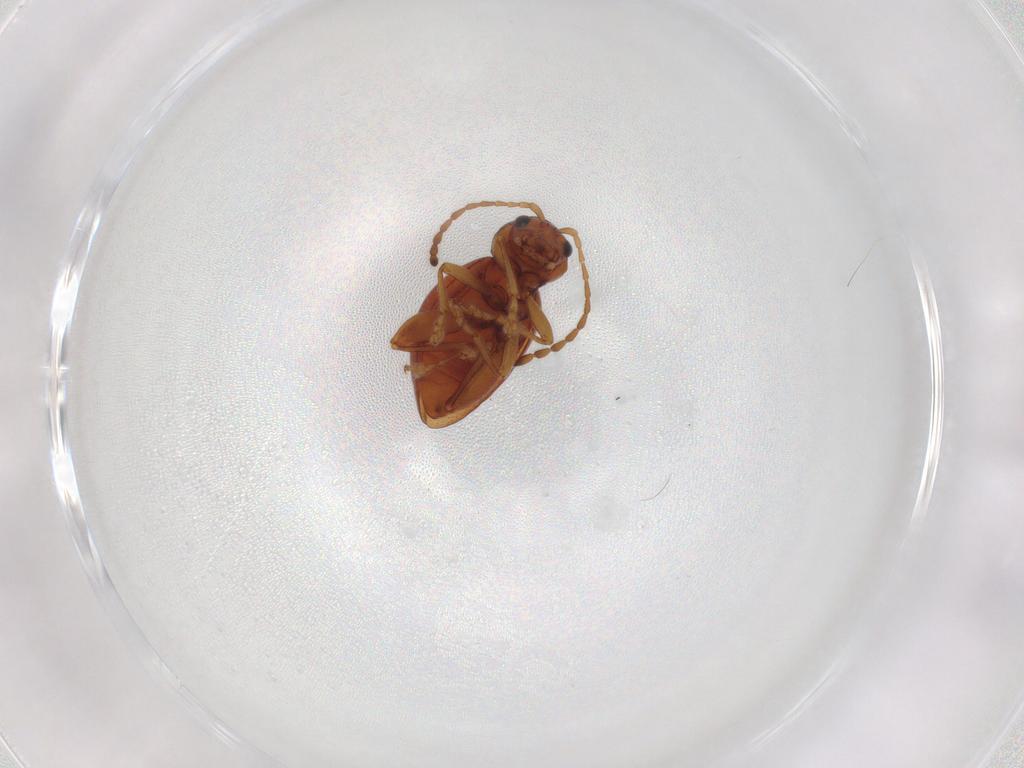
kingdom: Animalia
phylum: Arthropoda
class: Insecta
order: Coleoptera
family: Chrysomelidae
